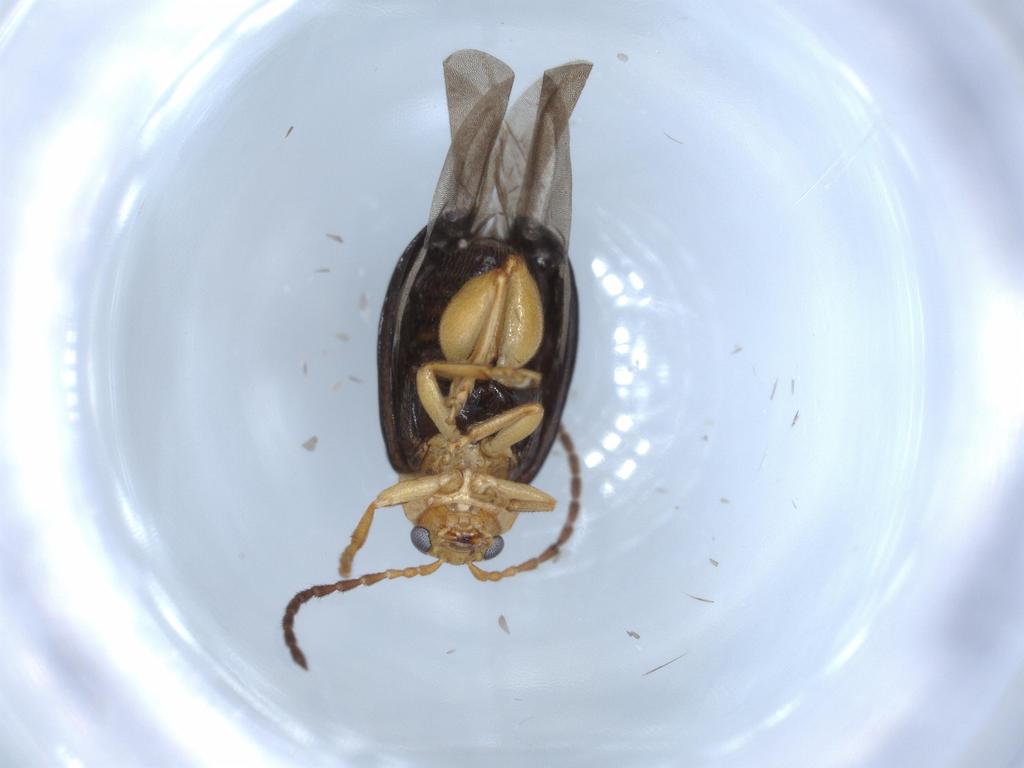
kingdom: Animalia
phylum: Arthropoda
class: Insecta
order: Coleoptera
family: Chrysomelidae
